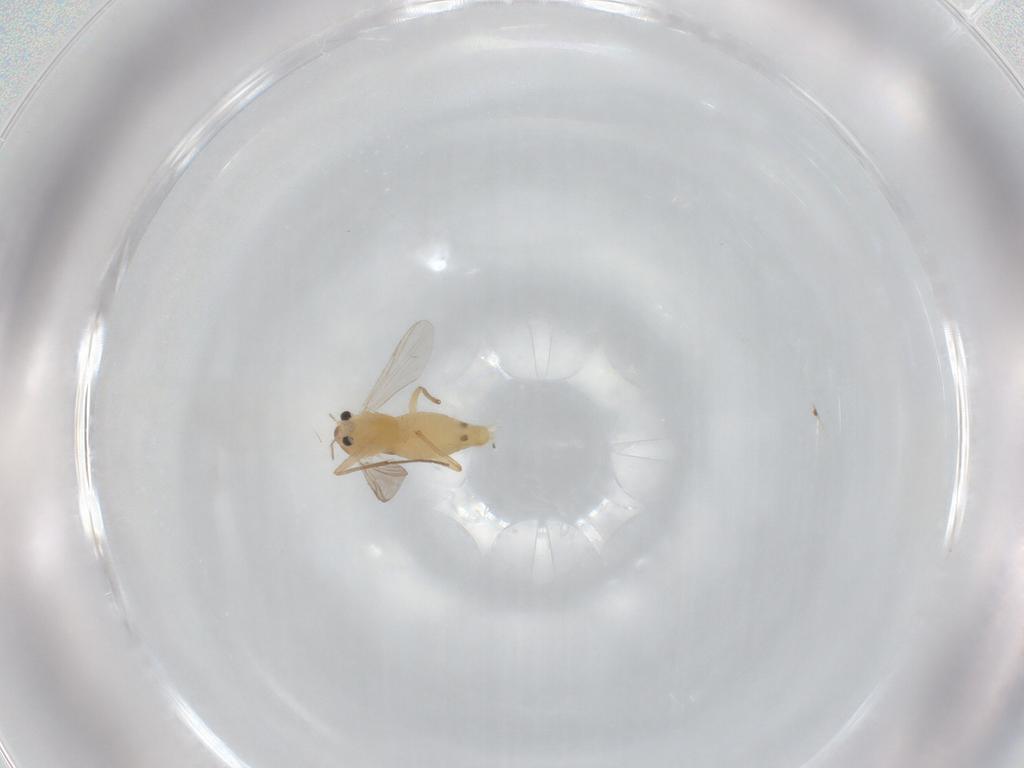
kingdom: Animalia
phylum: Arthropoda
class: Insecta
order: Diptera
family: Chironomidae
